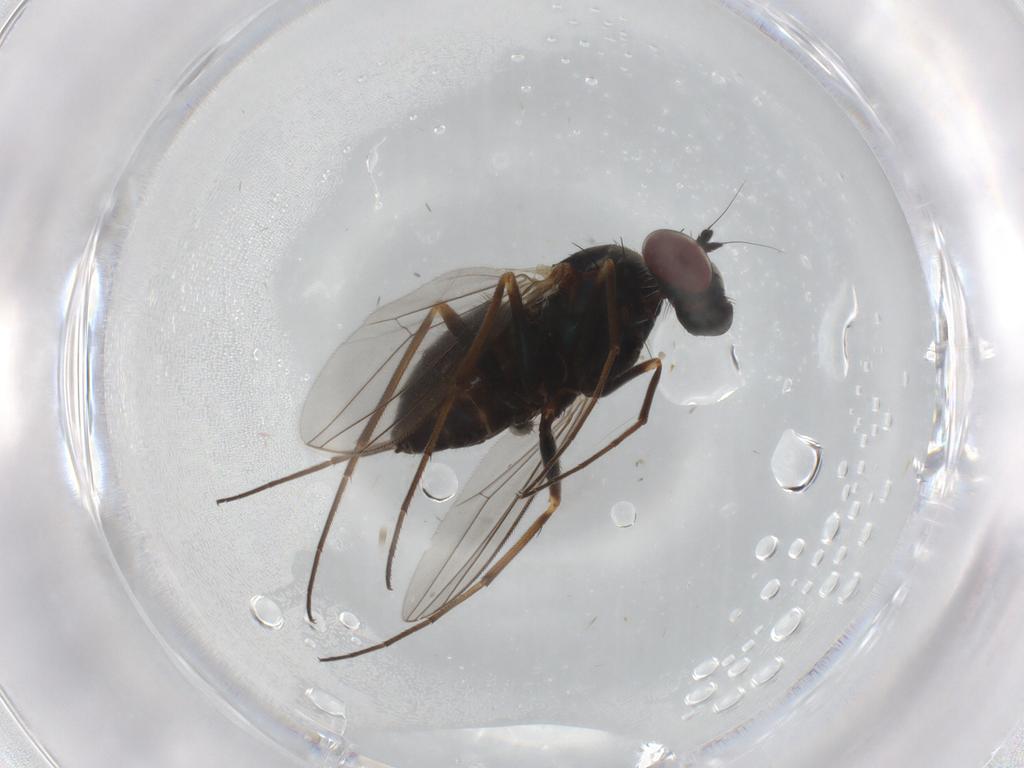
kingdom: Animalia
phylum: Arthropoda
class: Insecta
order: Diptera
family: Dolichopodidae
